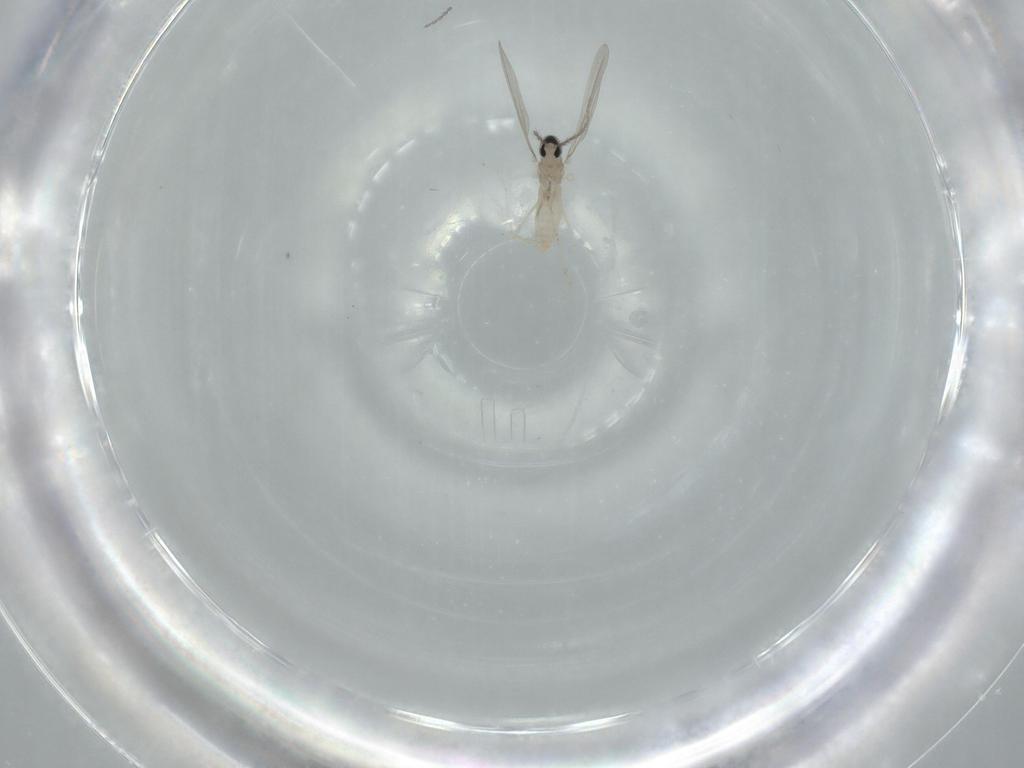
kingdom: Animalia
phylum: Arthropoda
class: Insecta
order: Diptera
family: Cecidomyiidae
